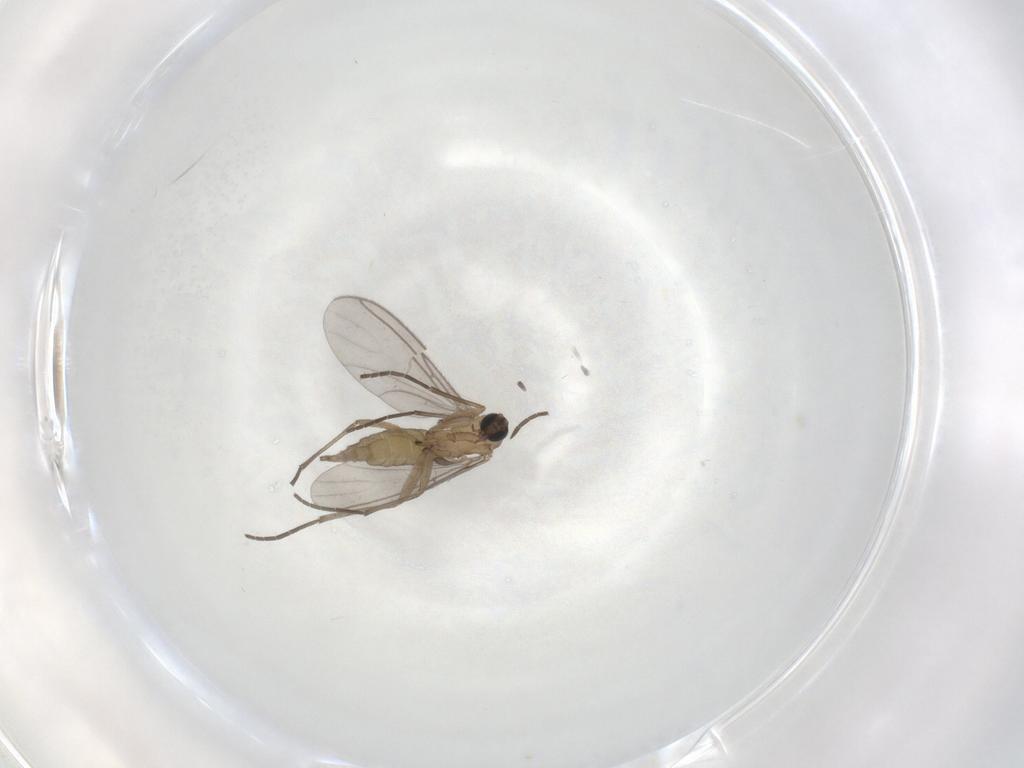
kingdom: Animalia
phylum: Arthropoda
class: Insecta
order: Diptera
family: Sciaridae
